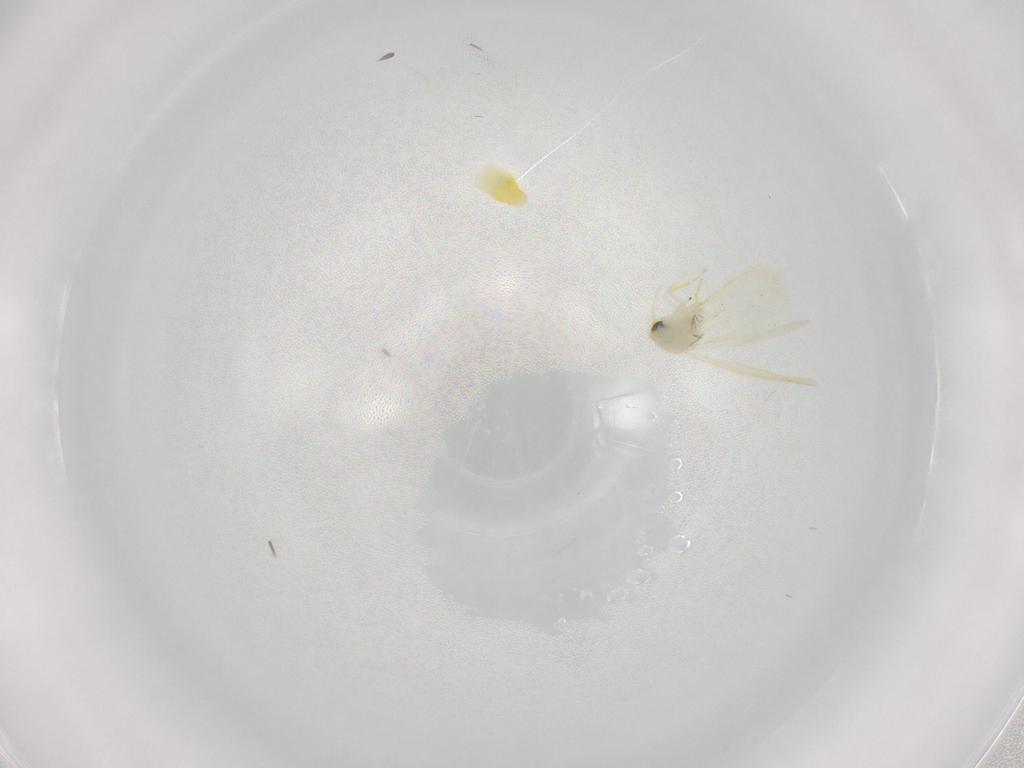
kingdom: Animalia
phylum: Arthropoda
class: Insecta
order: Hemiptera
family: Aleyrodidae
